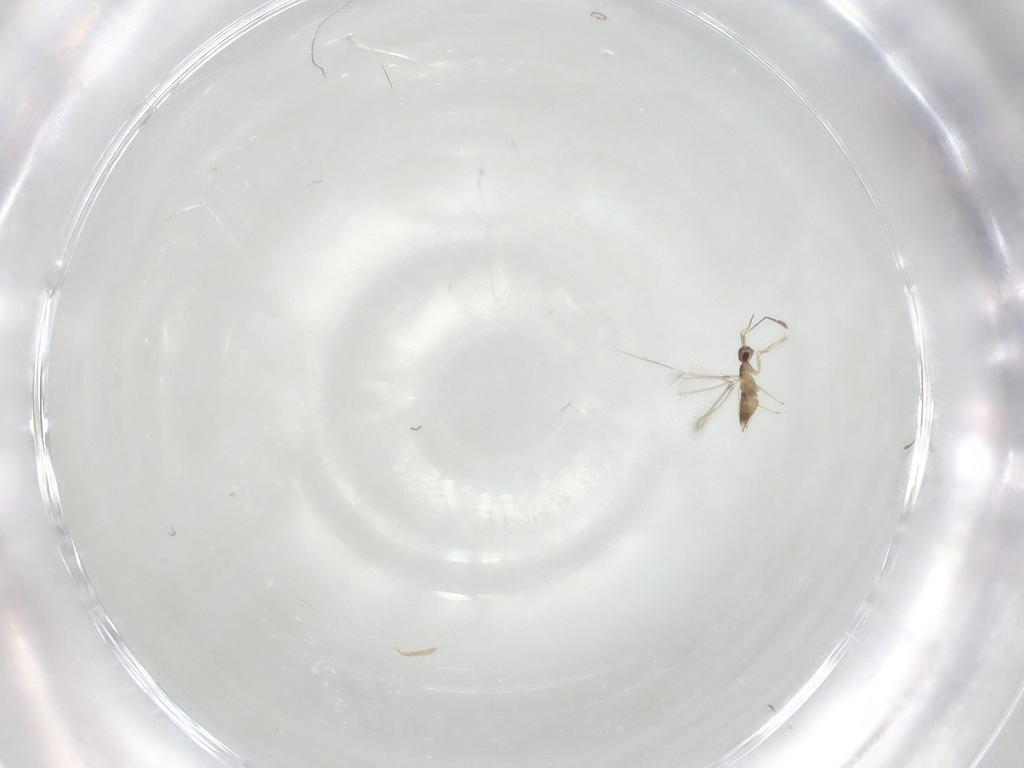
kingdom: Animalia
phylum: Arthropoda
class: Insecta
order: Hymenoptera
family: Mymaridae
